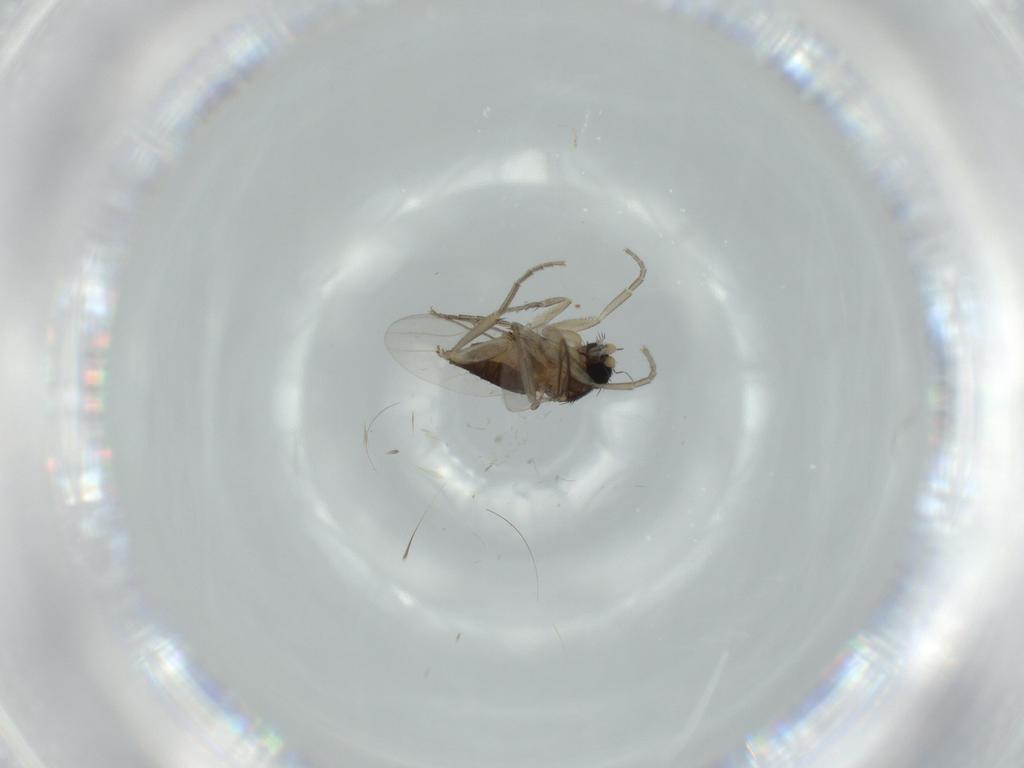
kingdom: Animalia
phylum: Arthropoda
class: Insecta
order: Diptera
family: Phoridae
